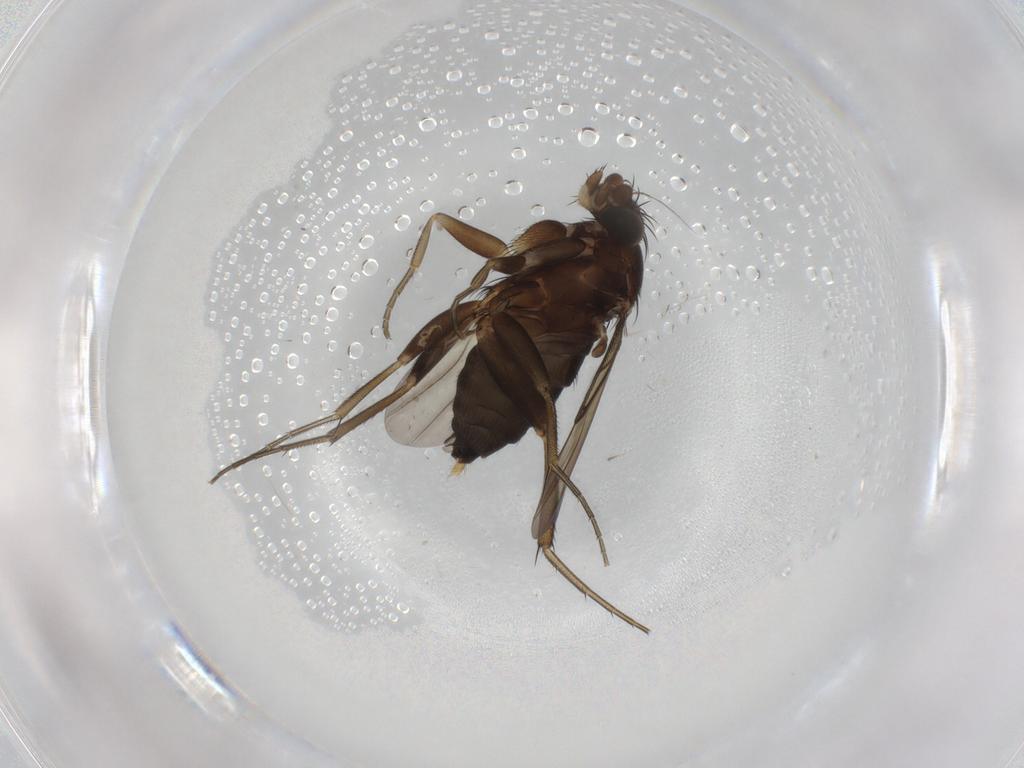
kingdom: Animalia
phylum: Arthropoda
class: Insecta
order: Diptera
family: Phoridae
